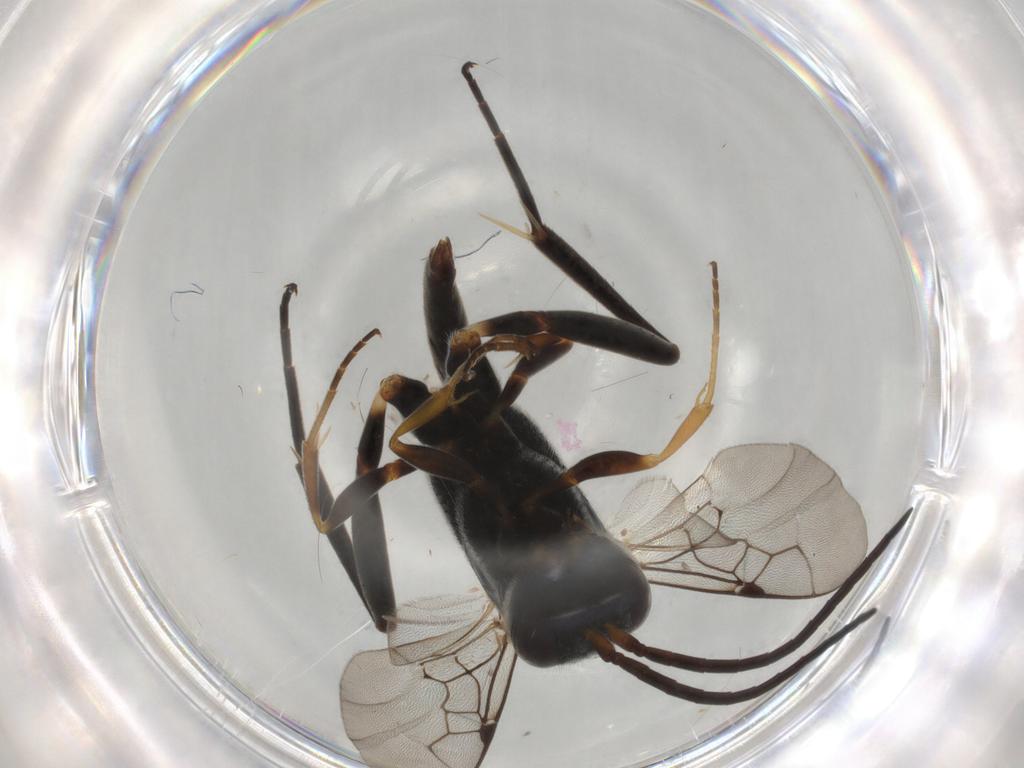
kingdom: Animalia
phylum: Arthropoda
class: Insecta
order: Hymenoptera
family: Evaniidae
